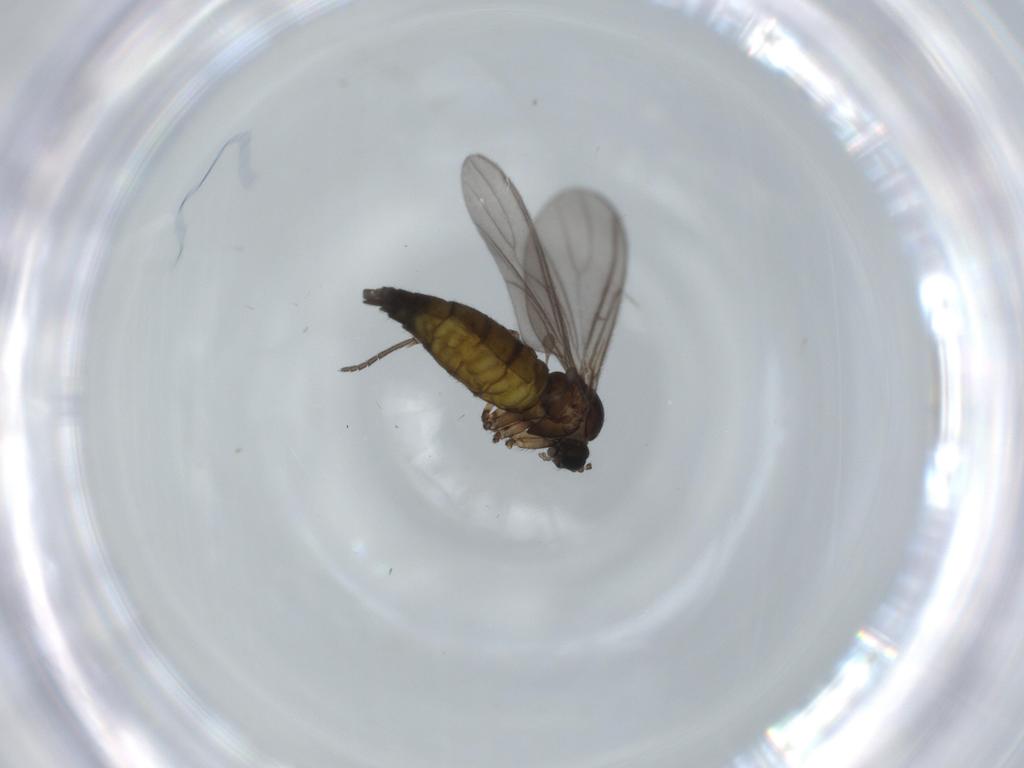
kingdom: Animalia
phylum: Arthropoda
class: Insecta
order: Diptera
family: Sciaridae
